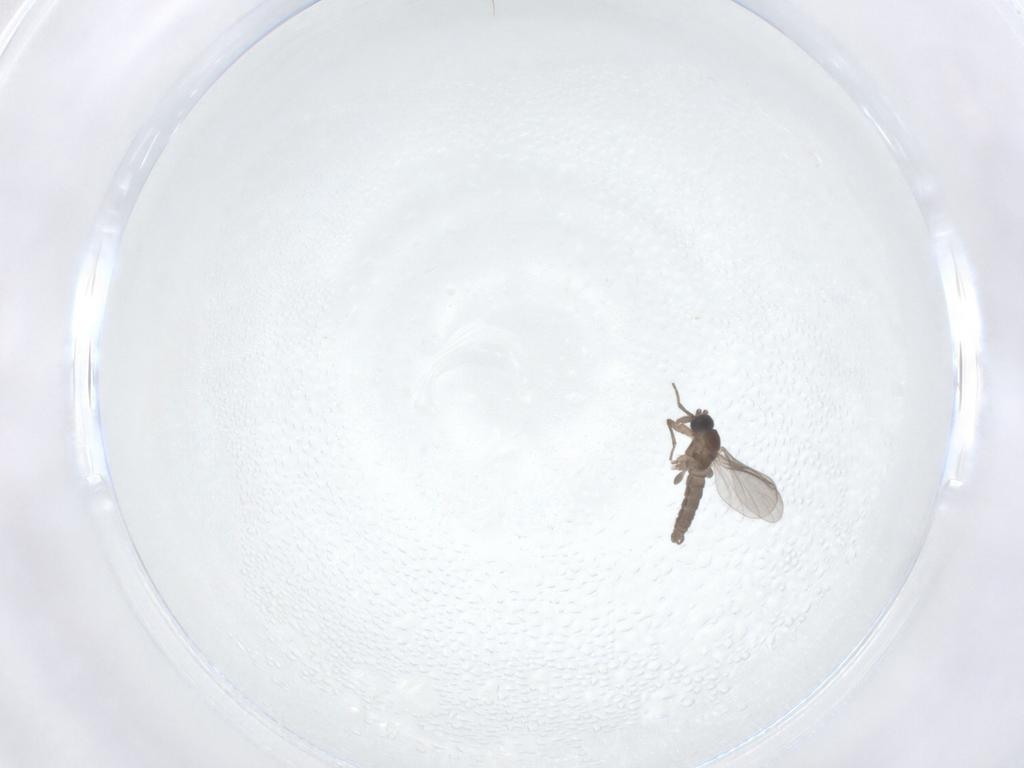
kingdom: Animalia
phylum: Arthropoda
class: Insecta
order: Diptera
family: Sciaridae
